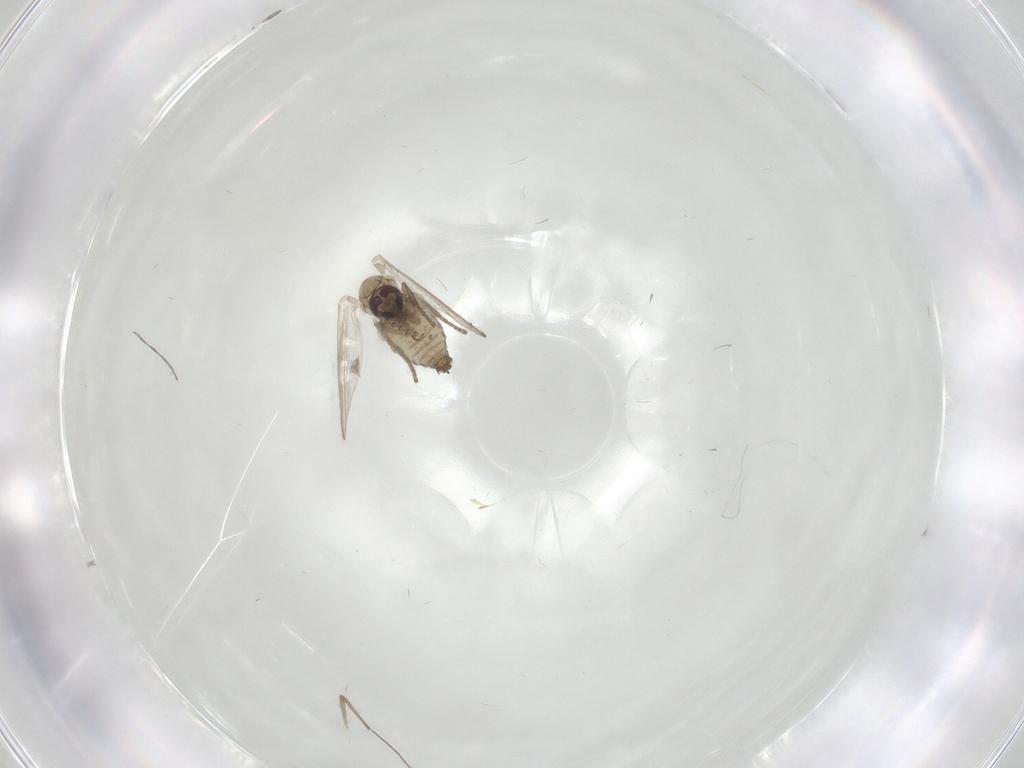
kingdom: Animalia
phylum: Arthropoda
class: Insecta
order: Diptera
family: Psychodidae
